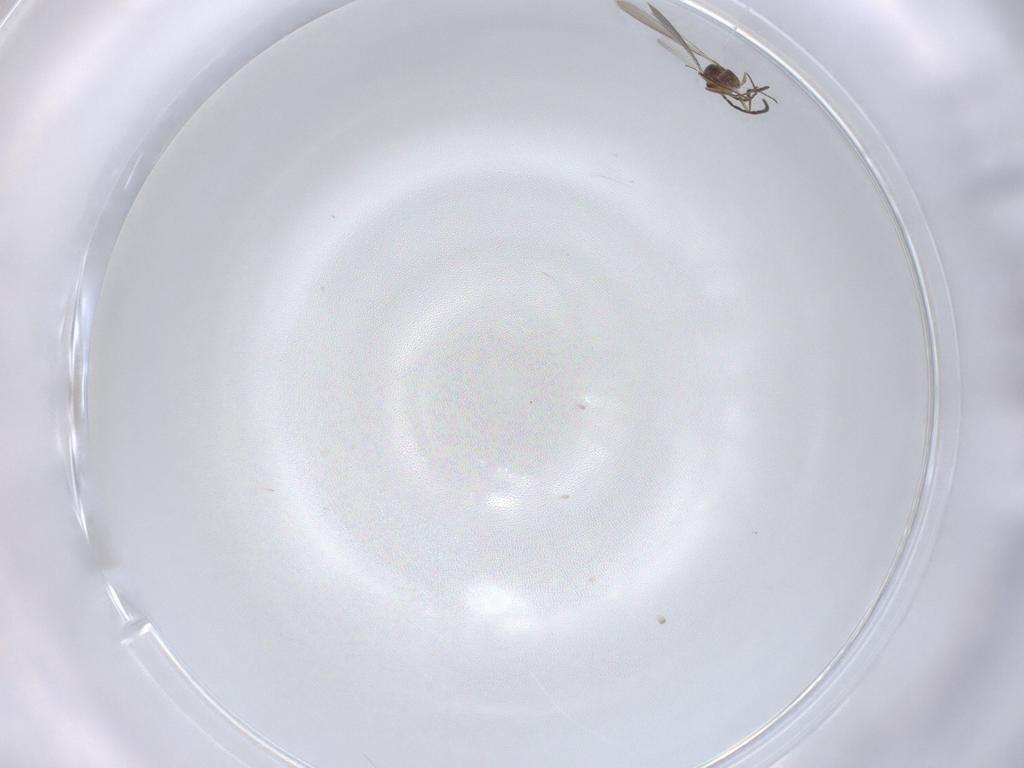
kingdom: Animalia
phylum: Arthropoda
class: Insecta
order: Hymenoptera
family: Mymaridae
